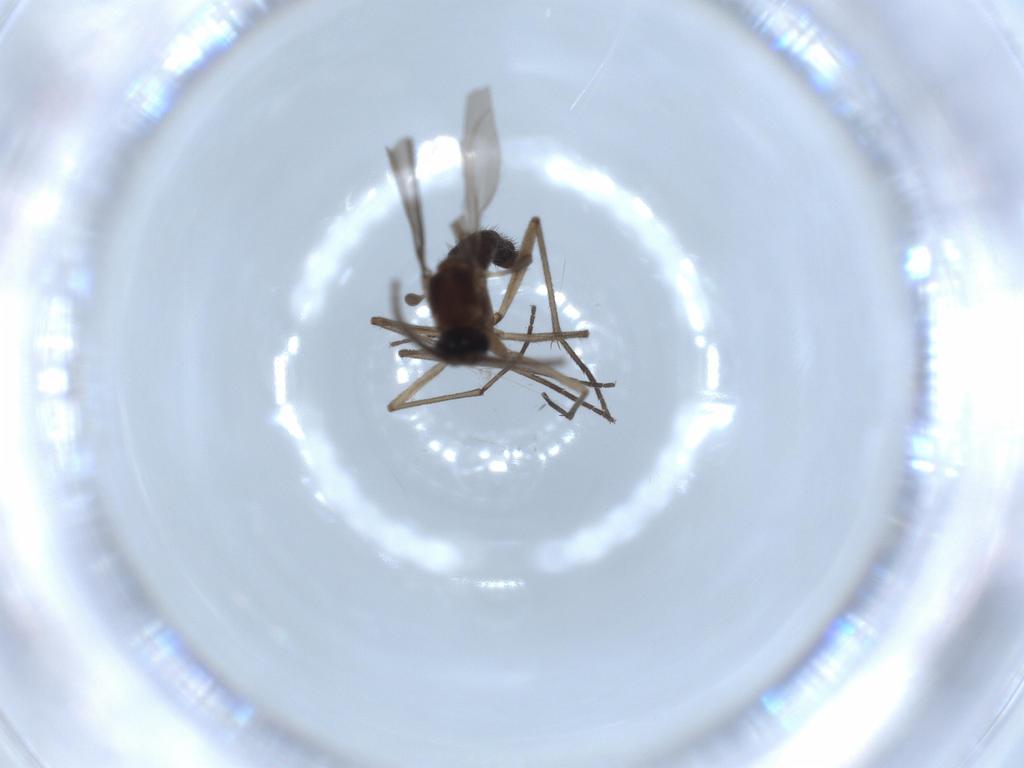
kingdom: Animalia
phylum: Arthropoda
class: Insecta
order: Diptera
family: Sciaridae
